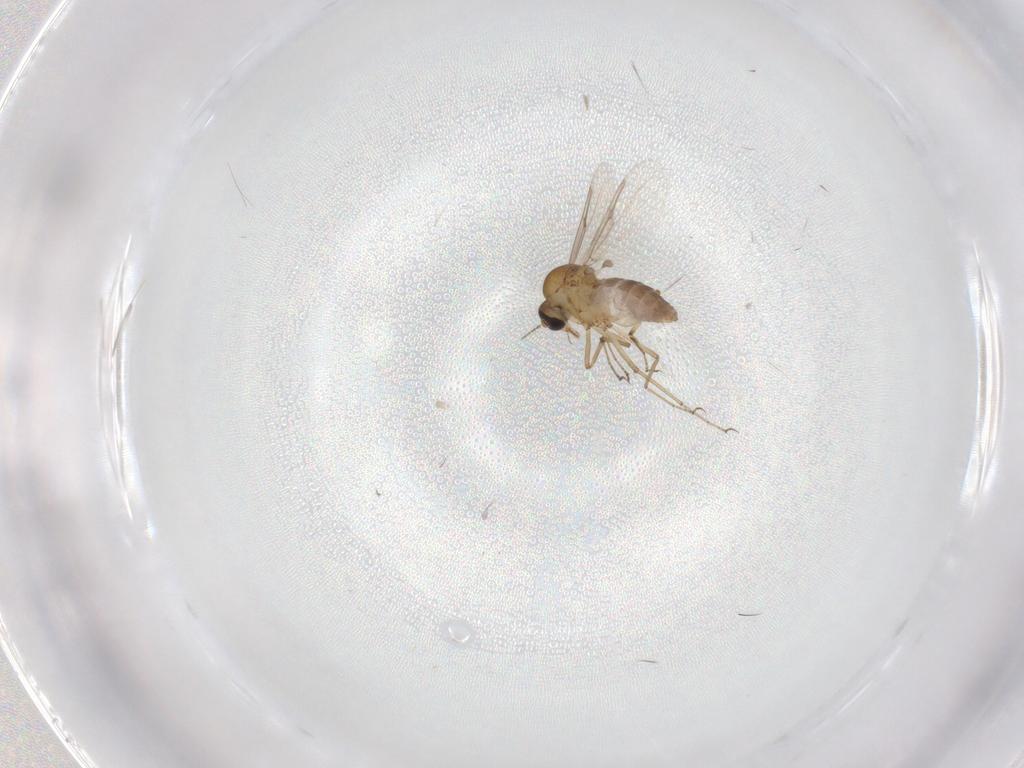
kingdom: Animalia
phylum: Arthropoda
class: Insecta
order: Diptera
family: Ceratopogonidae
